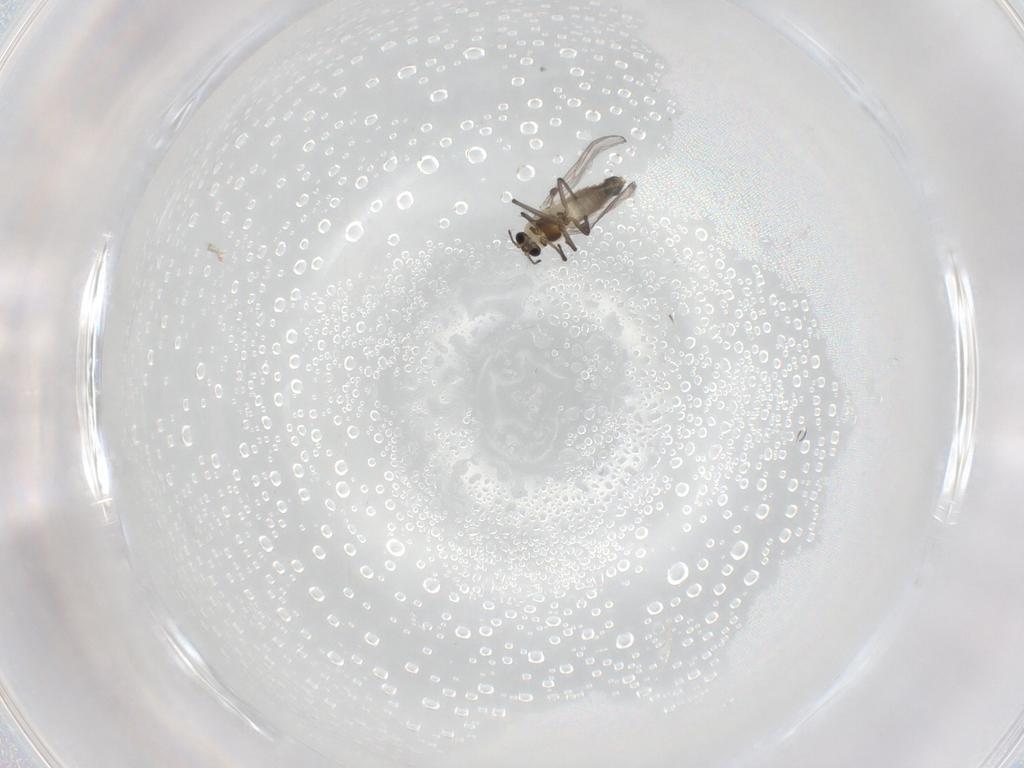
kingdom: Animalia
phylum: Arthropoda
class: Insecta
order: Diptera
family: Chironomidae
